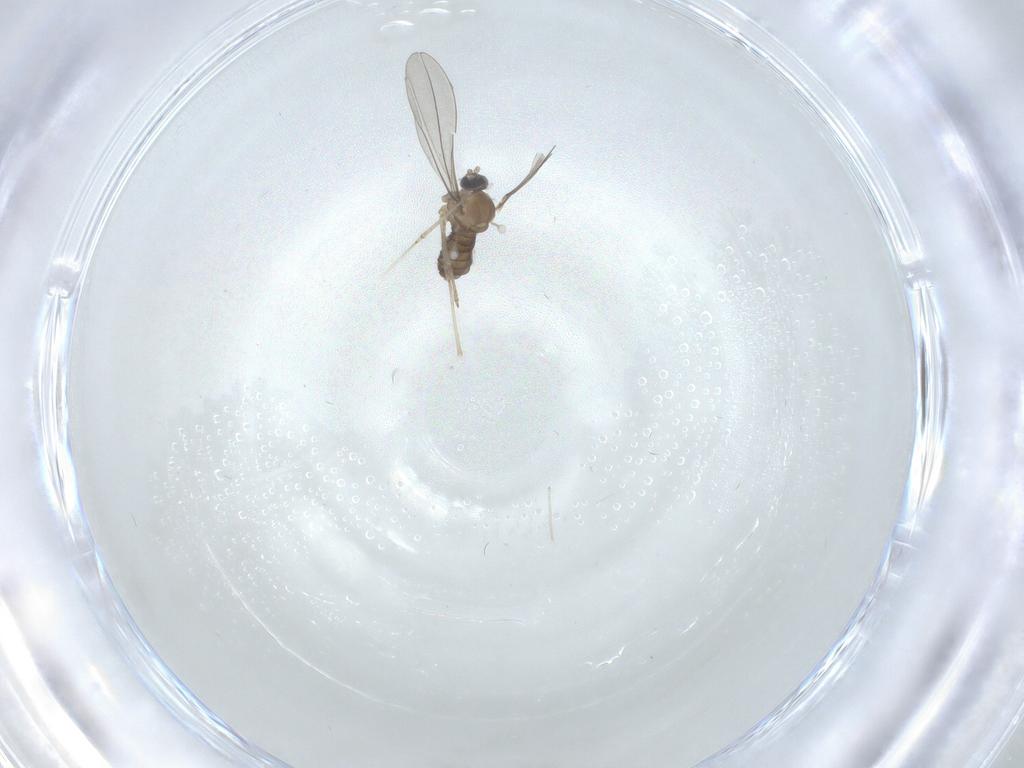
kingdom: Animalia
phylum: Arthropoda
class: Insecta
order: Diptera
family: Cecidomyiidae
